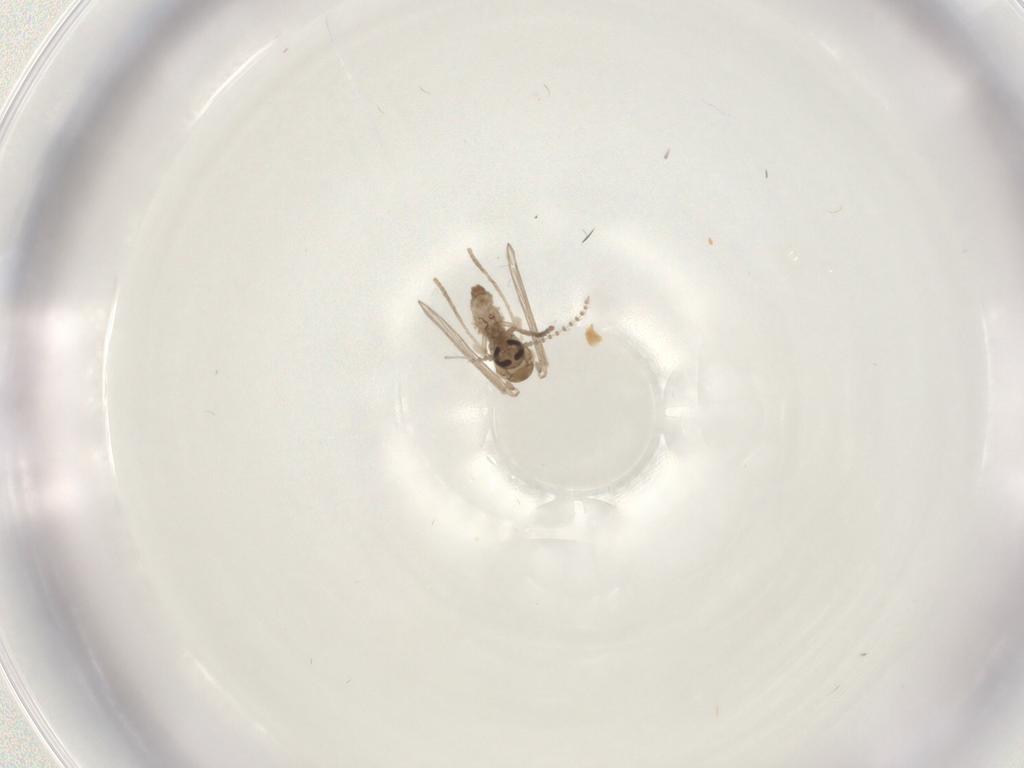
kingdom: Animalia
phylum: Arthropoda
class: Insecta
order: Diptera
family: Psychodidae
